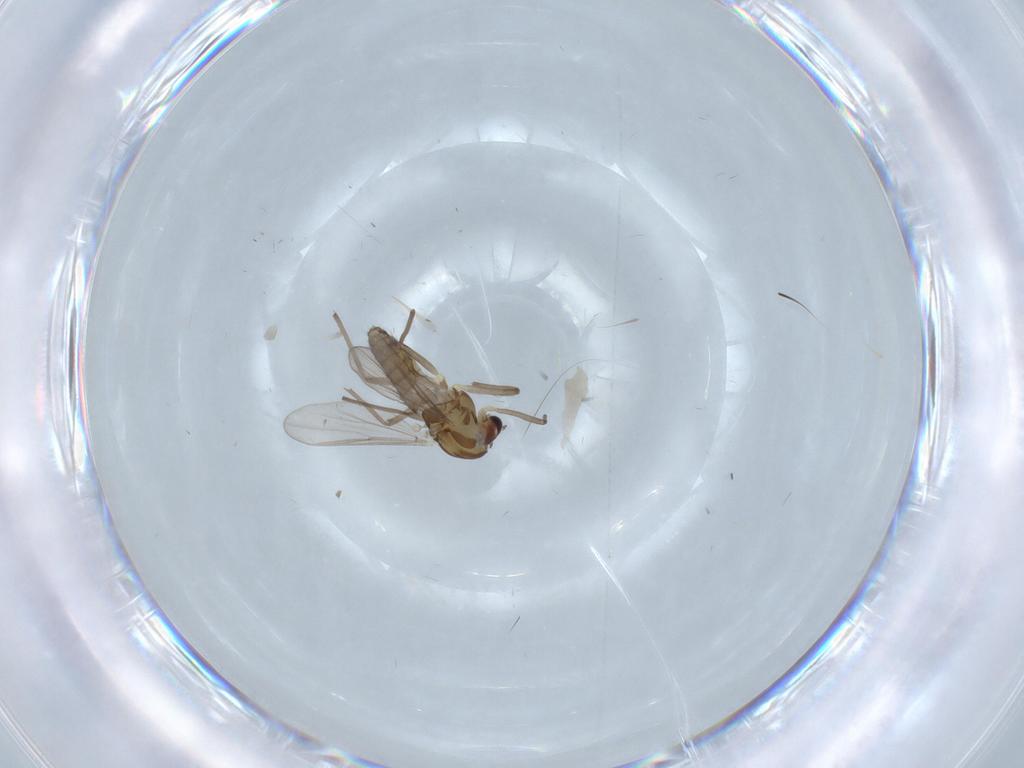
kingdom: Animalia
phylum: Arthropoda
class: Insecta
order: Diptera
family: Chironomidae
